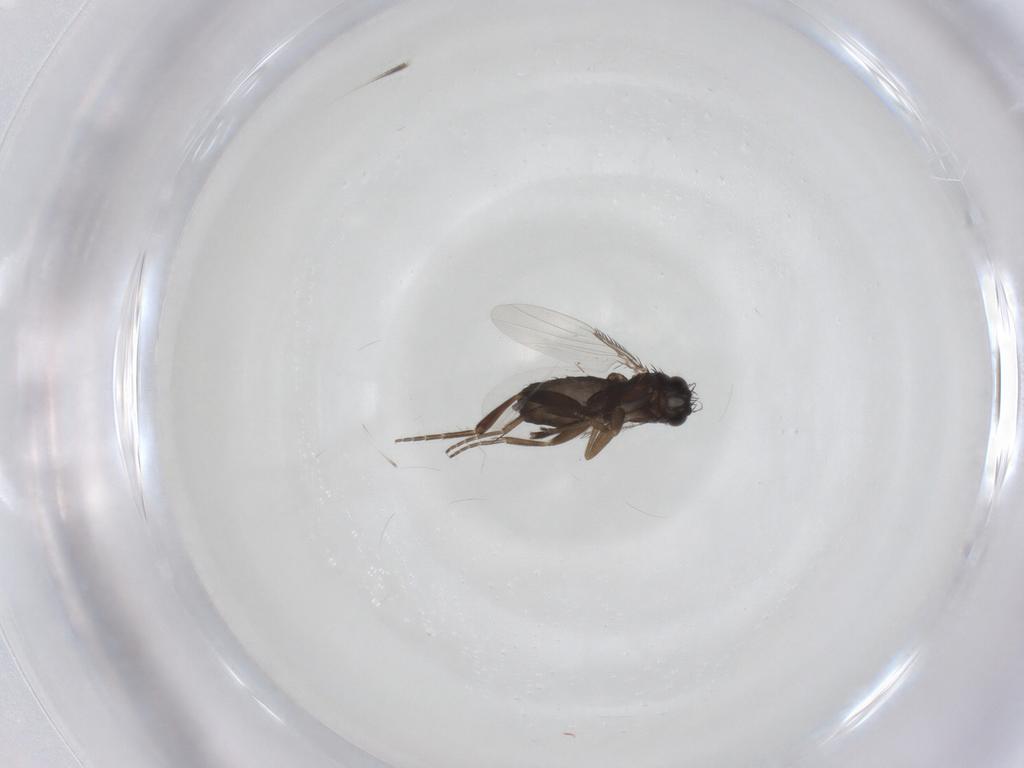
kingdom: Animalia
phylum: Arthropoda
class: Insecta
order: Diptera
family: Phoridae
